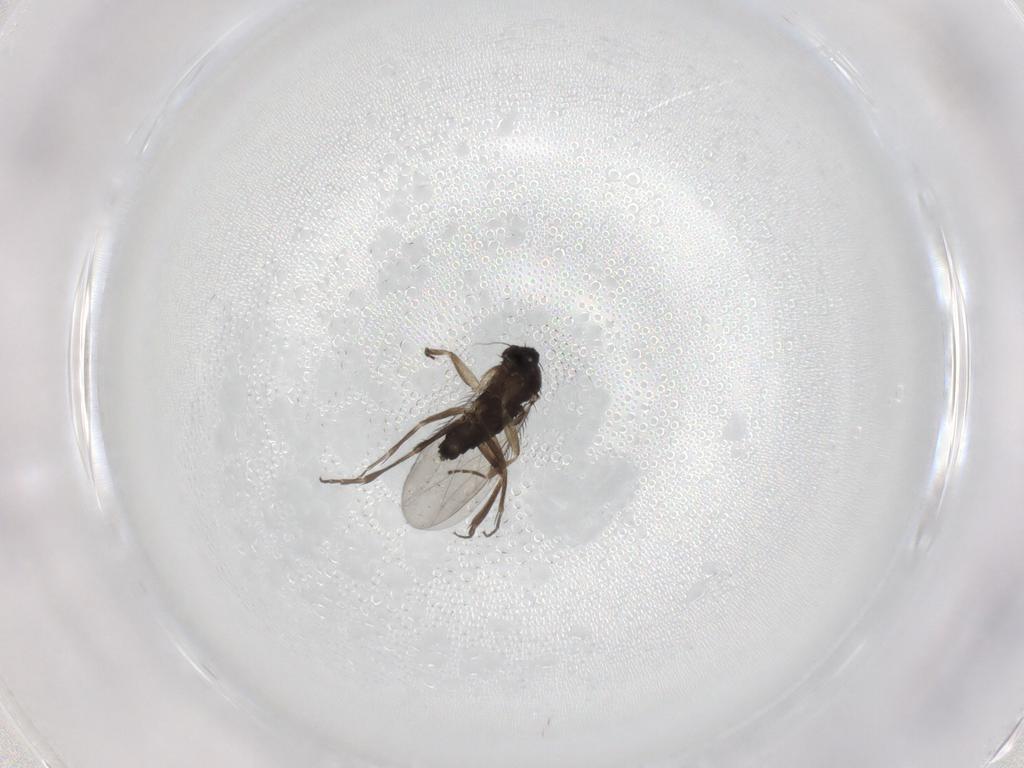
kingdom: Animalia
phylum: Arthropoda
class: Insecta
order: Diptera
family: Phoridae
